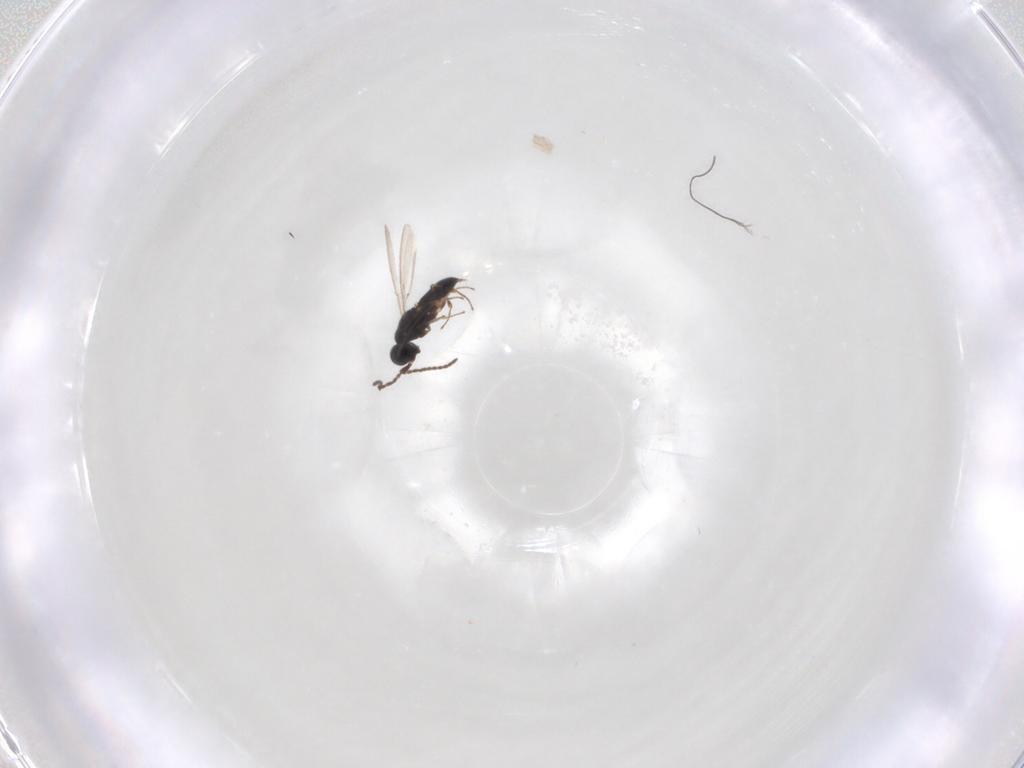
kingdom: Animalia
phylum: Arthropoda
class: Insecta
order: Hymenoptera
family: Scelionidae
